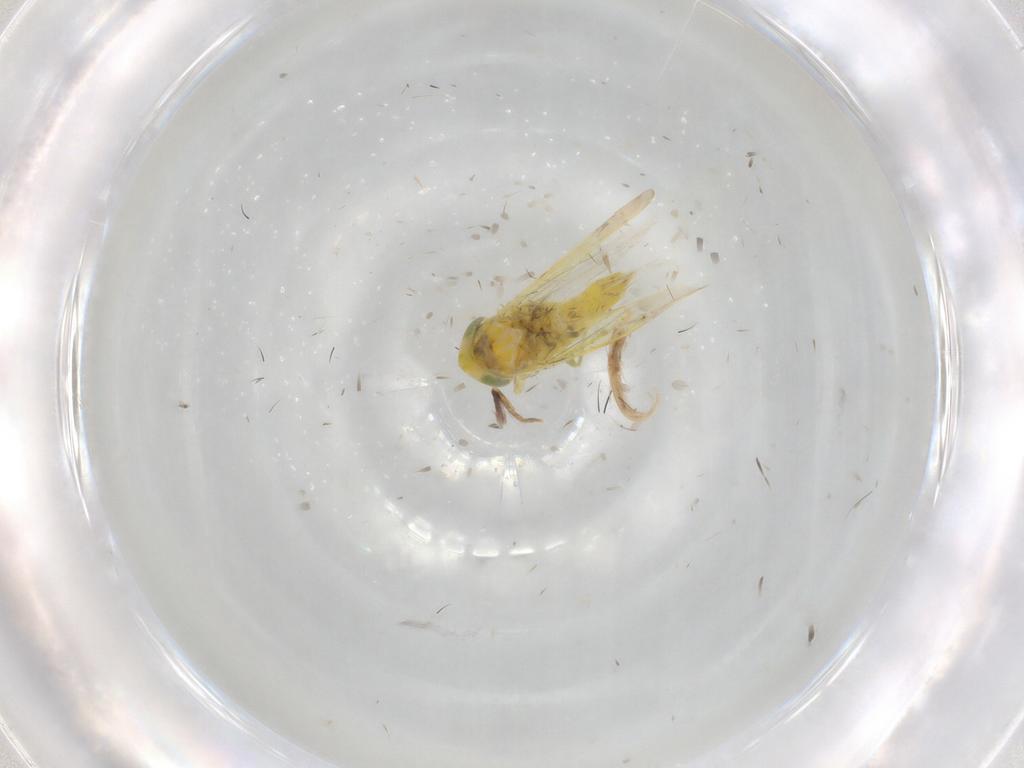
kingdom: Animalia
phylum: Arthropoda
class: Insecta
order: Hemiptera
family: Cicadellidae
